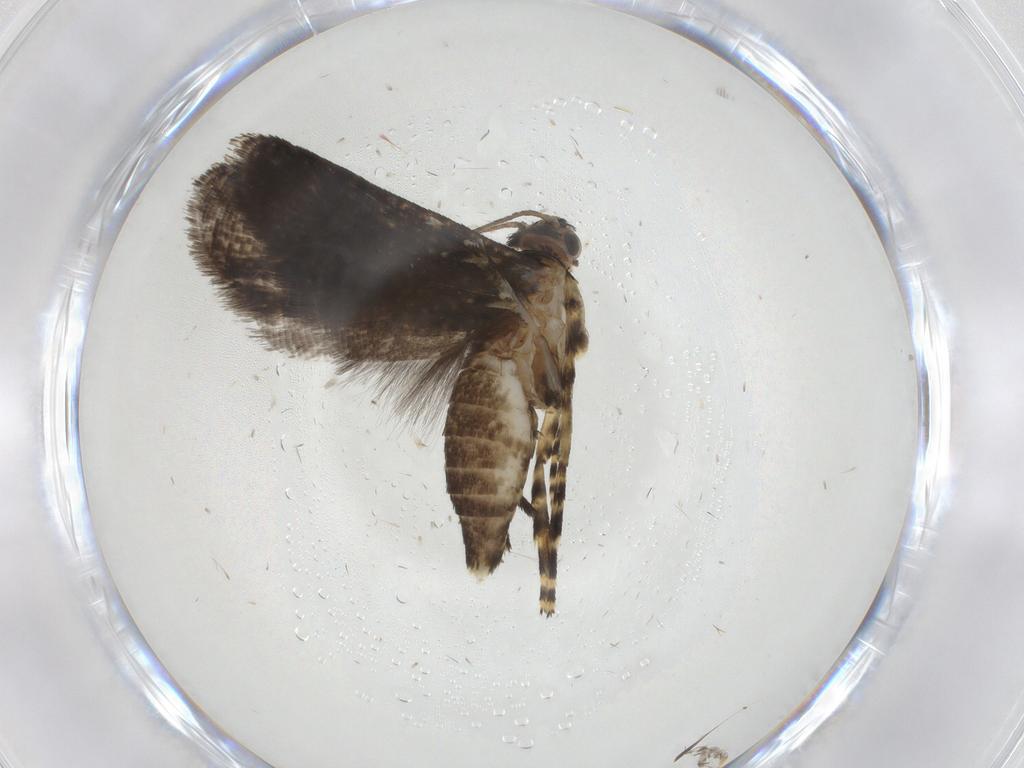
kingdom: Animalia
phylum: Arthropoda
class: Insecta
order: Lepidoptera
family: Geometridae
